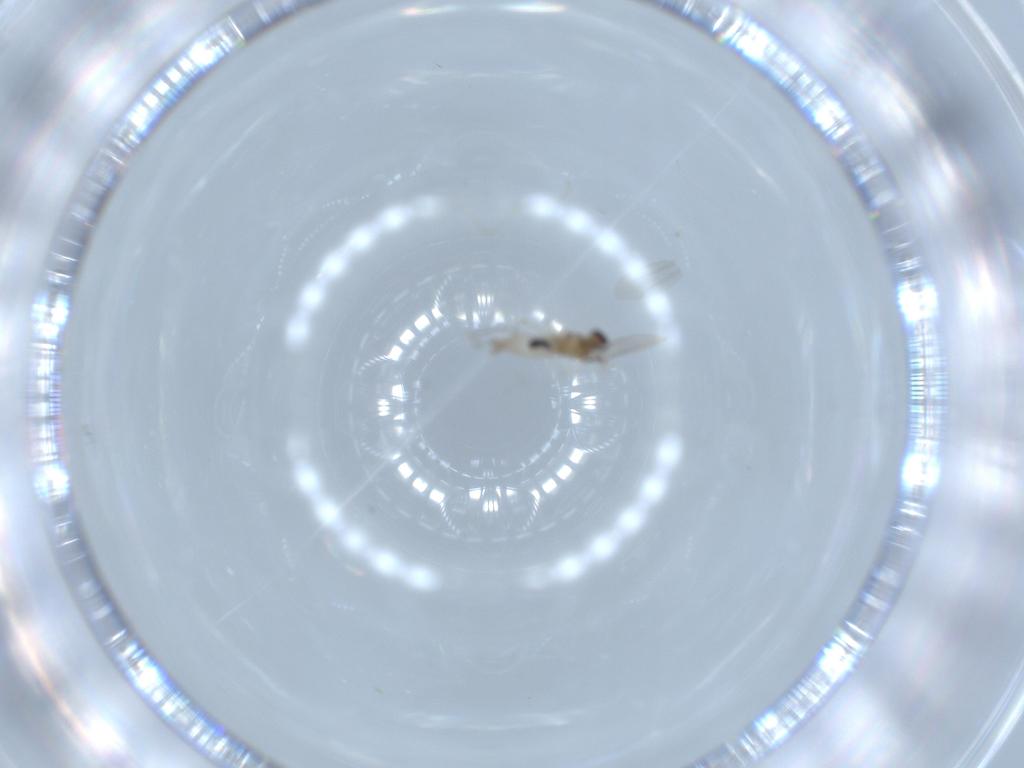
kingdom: Animalia
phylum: Arthropoda
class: Insecta
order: Diptera
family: Cecidomyiidae
